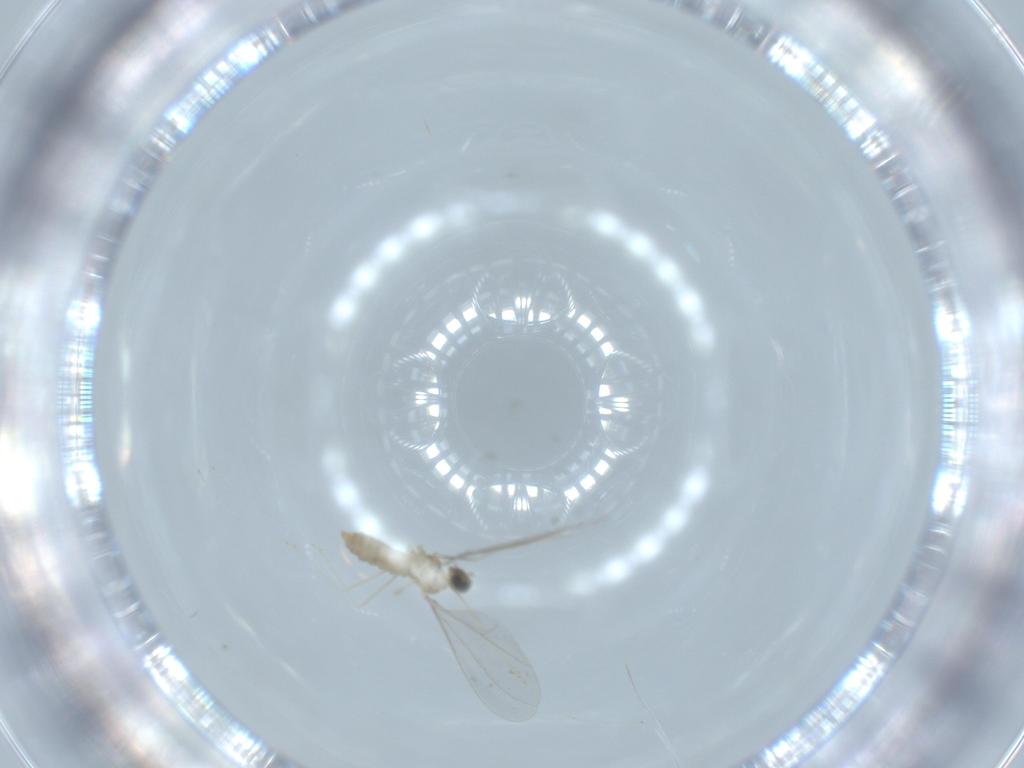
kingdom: Animalia
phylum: Arthropoda
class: Insecta
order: Diptera
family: Cecidomyiidae
